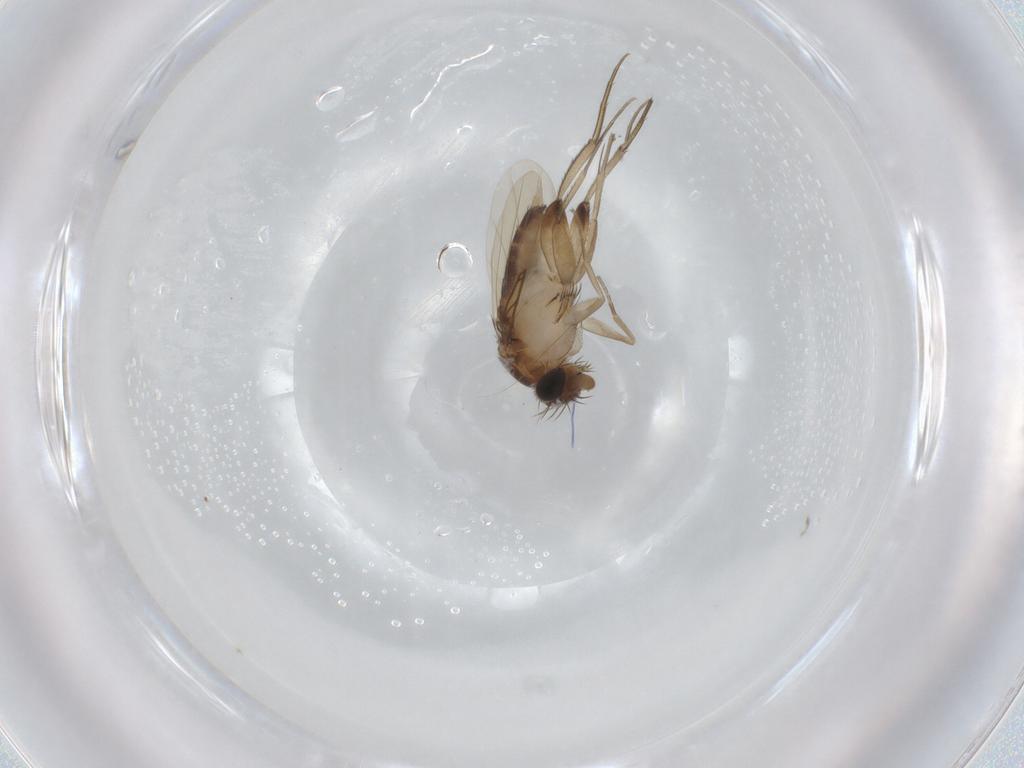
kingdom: Animalia
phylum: Arthropoda
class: Insecta
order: Diptera
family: Phoridae
